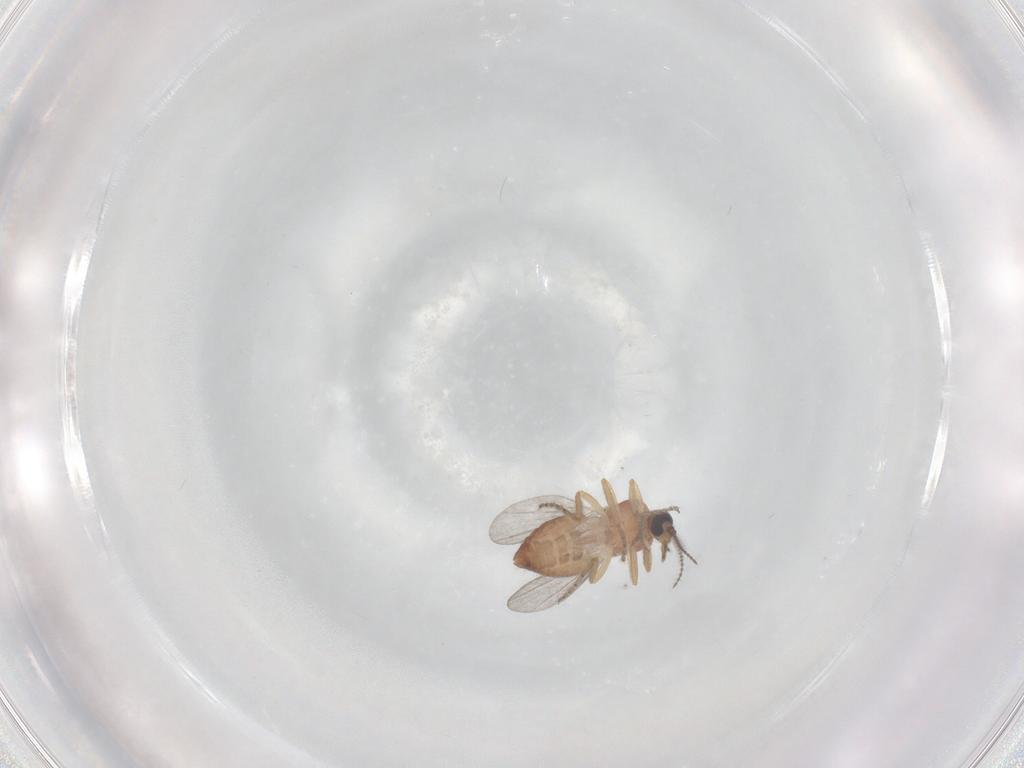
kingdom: Animalia
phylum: Arthropoda
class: Insecta
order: Diptera
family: Ceratopogonidae
